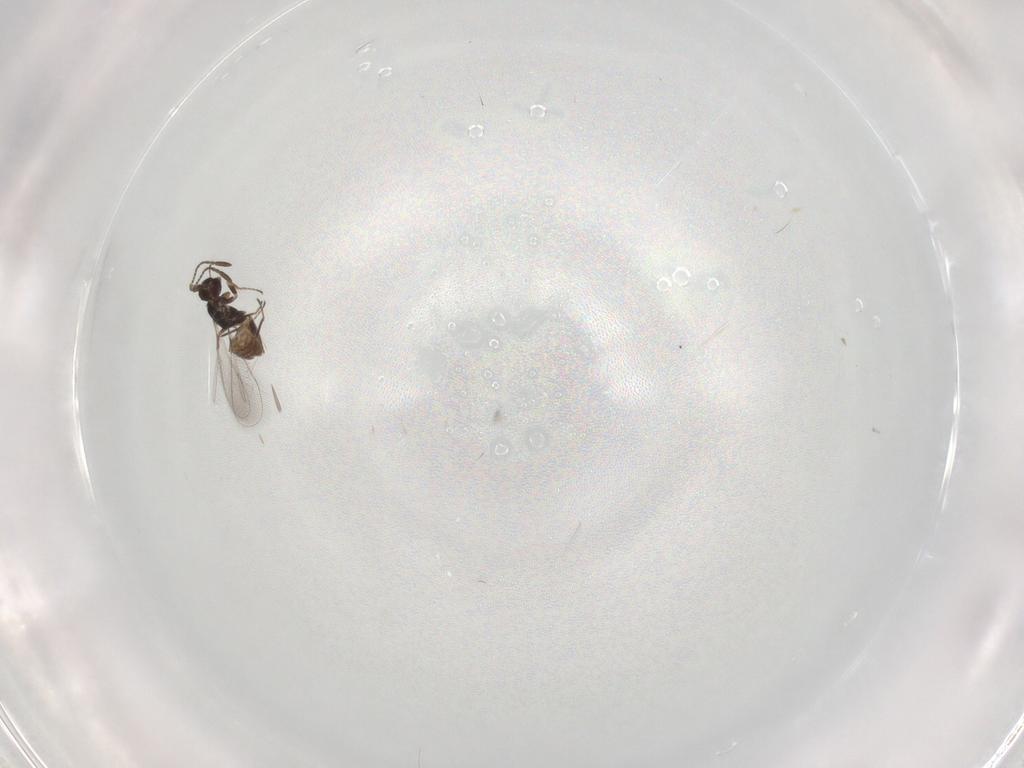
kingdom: Animalia
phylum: Arthropoda
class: Insecta
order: Hymenoptera
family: Mymaridae
